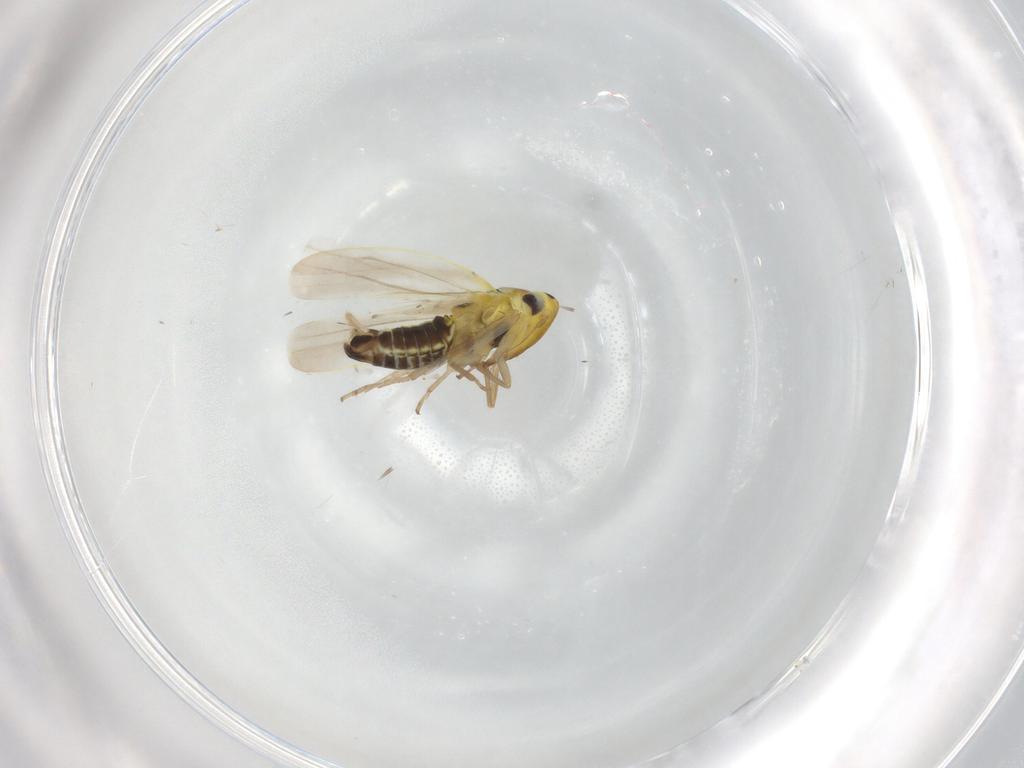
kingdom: Animalia
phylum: Arthropoda
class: Insecta
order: Hemiptera
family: Cicadellidae
